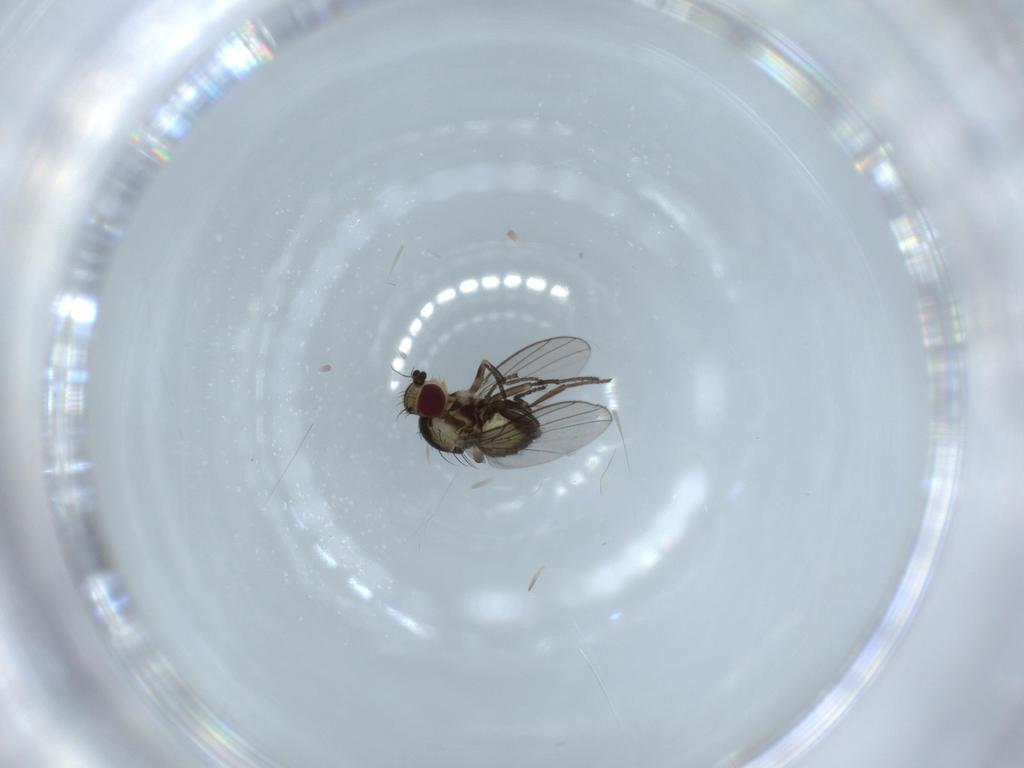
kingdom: Animalia
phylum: Arthropoda
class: Insecta
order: Diptera
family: Agromyzidae
